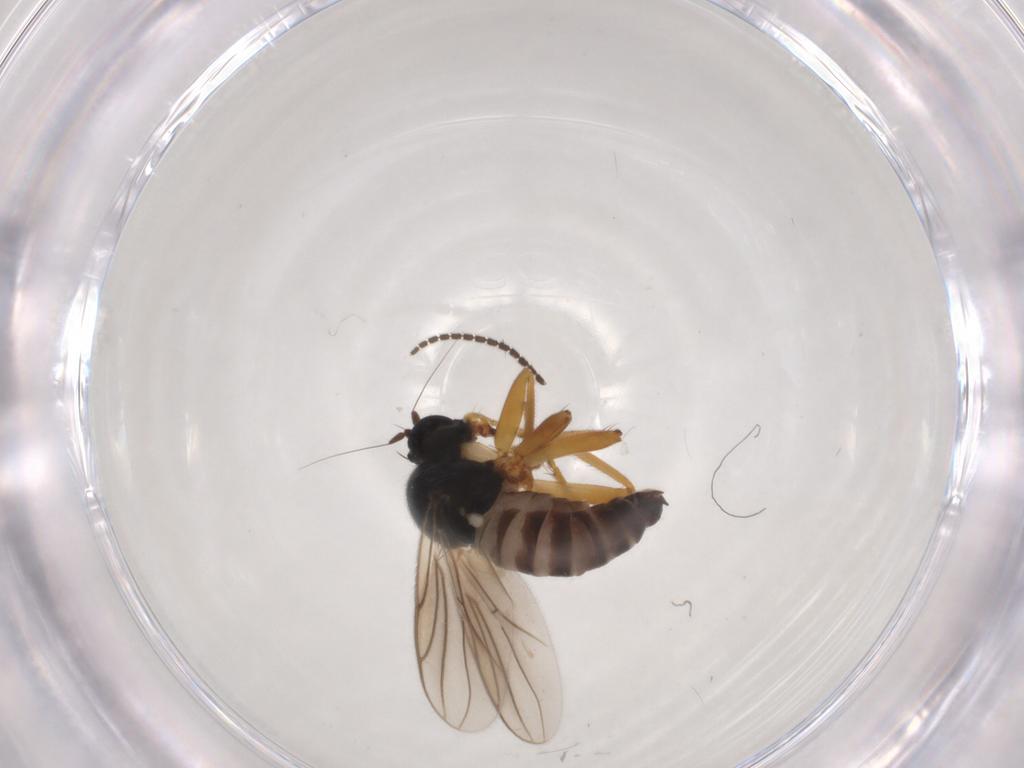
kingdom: Animalia
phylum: Arthropoda
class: Insecta
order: Diptera
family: Hybotidae
